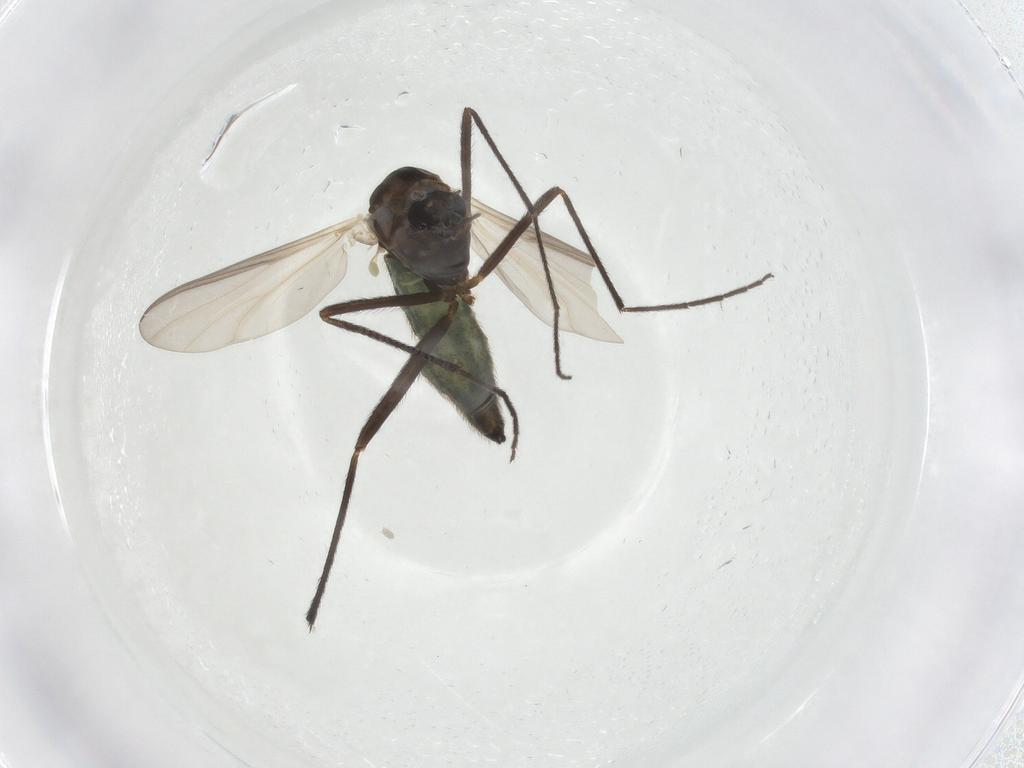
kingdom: Animalia
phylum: Arthropoda
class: Insecta
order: Diptera
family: Chironomidae
